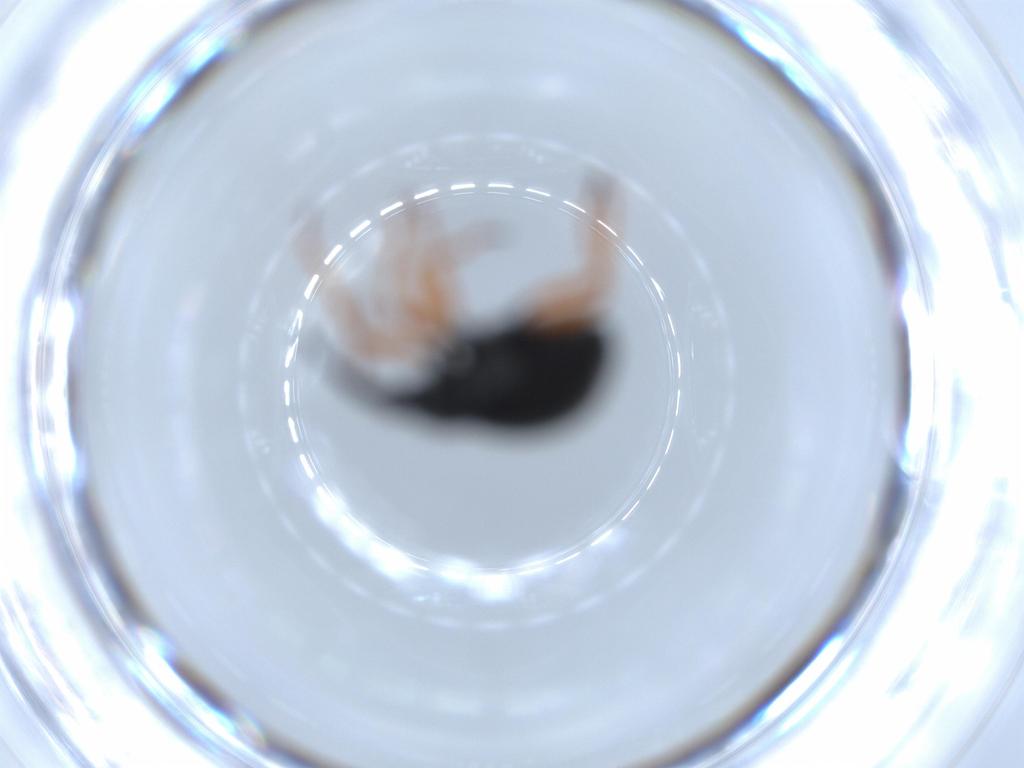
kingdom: Animalia
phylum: Arthropoda
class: Insecta
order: Coleoptera
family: Brentidae
